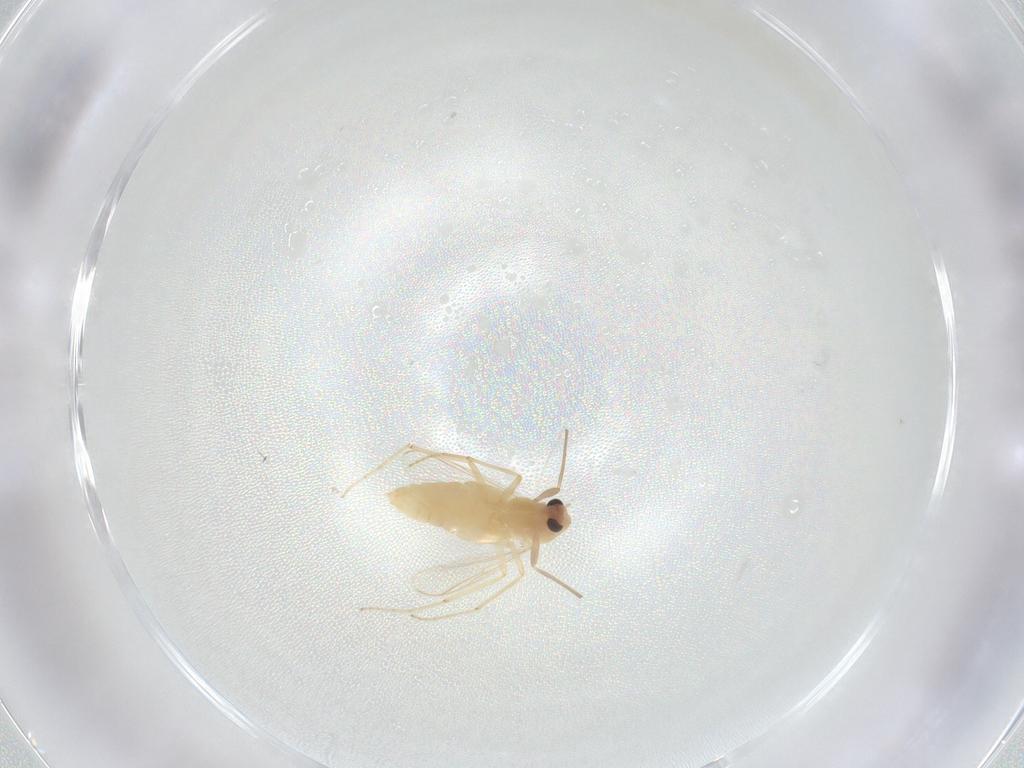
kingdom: Animalia
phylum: Arthropoda
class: Insecta
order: Diptera
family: Chironomidae
